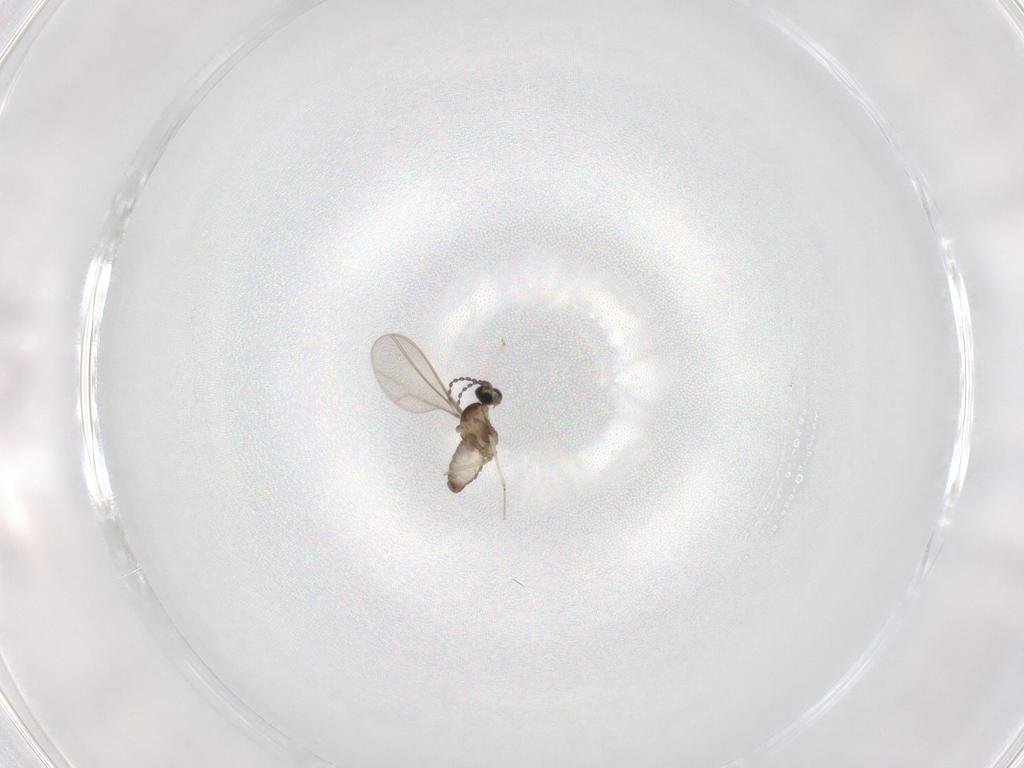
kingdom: Animalia
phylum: Arthropoda
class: Insecta
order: Diptera
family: Cecidomyiidae
